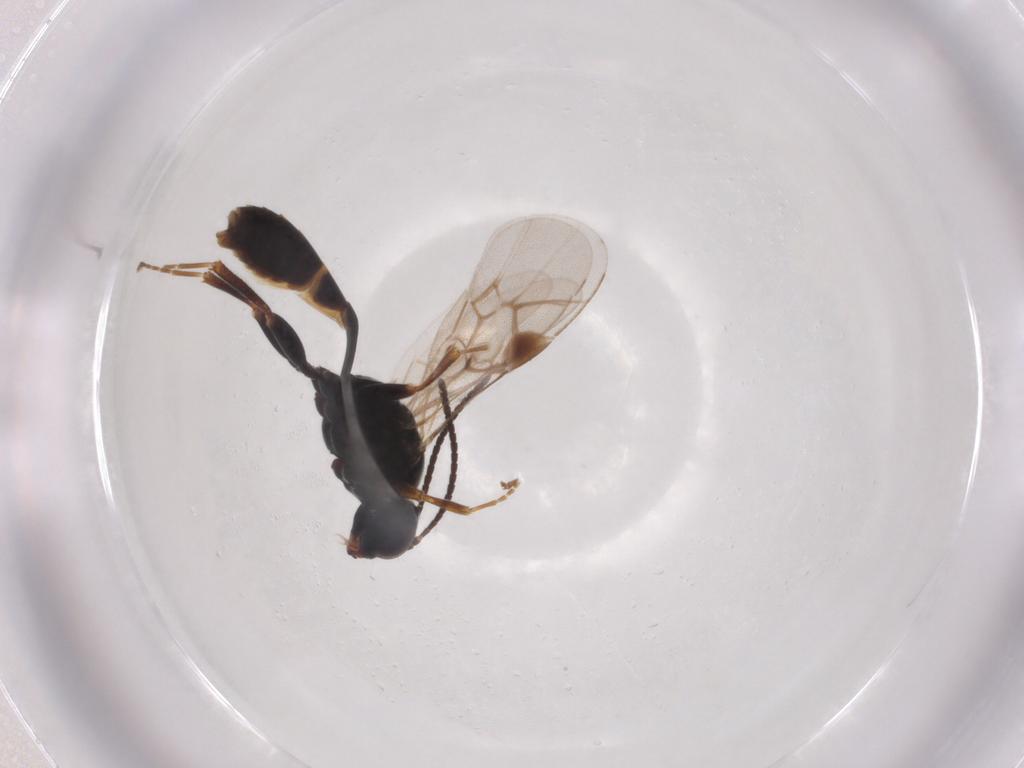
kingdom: Animalia
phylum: Arthropoda
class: Insecta
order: Hymenoptera
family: Ichneumonidae
